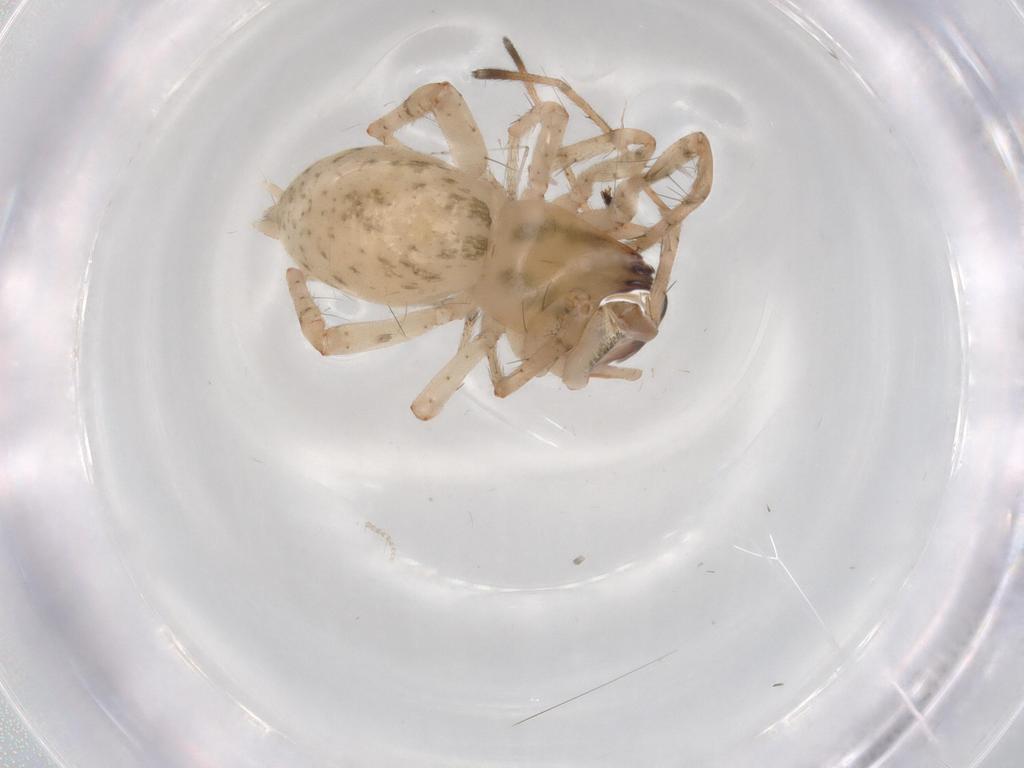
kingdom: Animalia
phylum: Arthropoda
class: Arachnida
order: Araneae
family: Anyphaenidae
